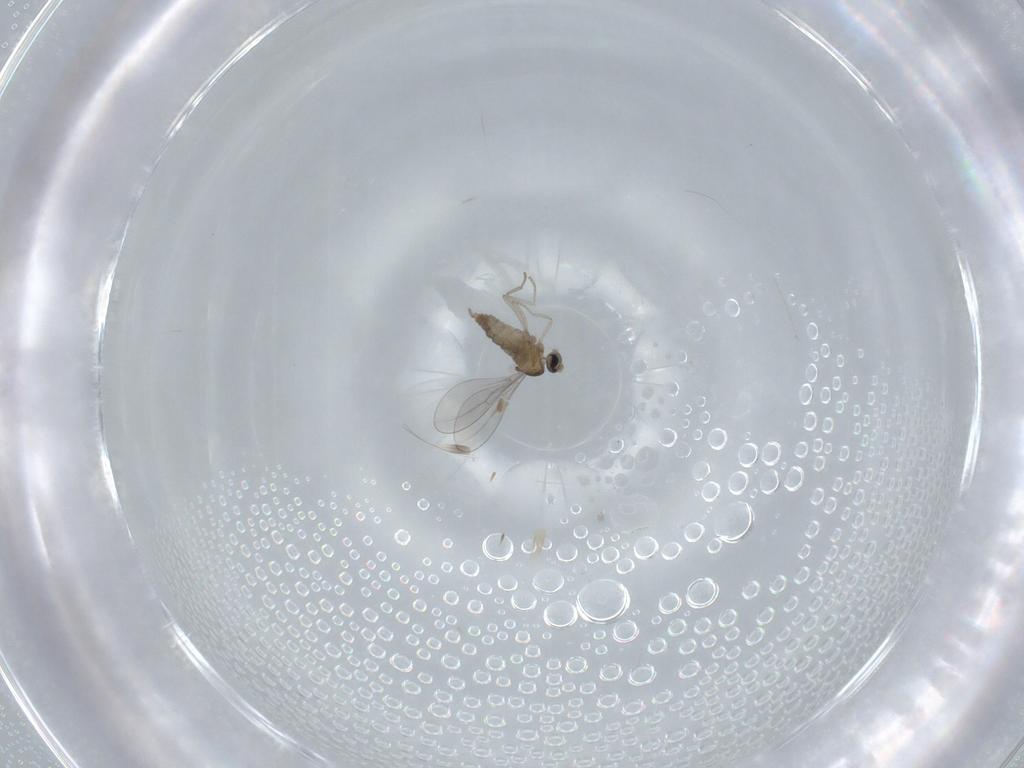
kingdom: Animalia
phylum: Arthropoda
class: Insecta
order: Diptera
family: Cecidomyiidae
